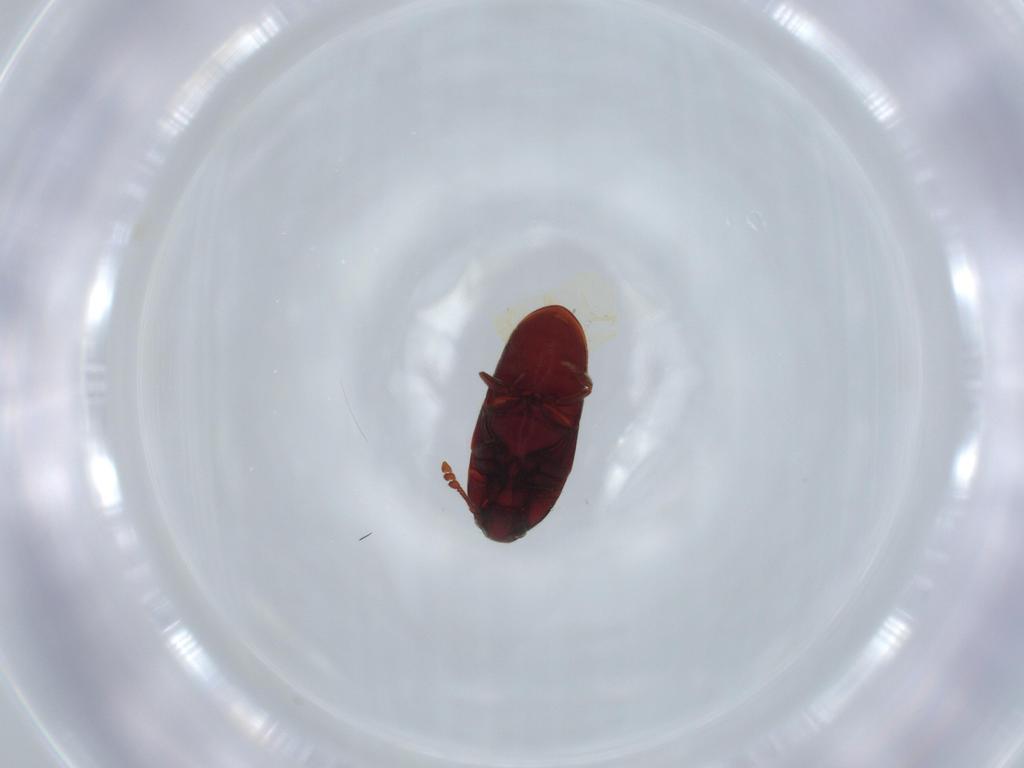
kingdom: Animalia
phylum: Arthropoda
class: Insecta
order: Coleoptera
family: Throscidae
